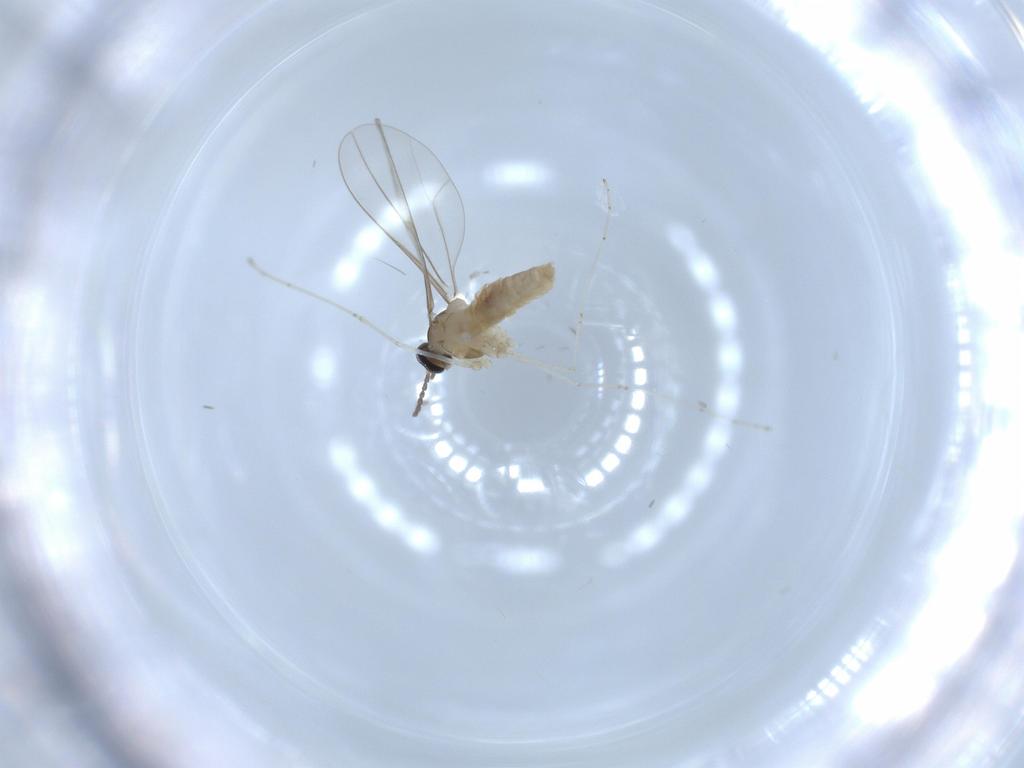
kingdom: Animalia
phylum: Arthropoda
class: Insecta
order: Diptera
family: Cecidomyiidae
